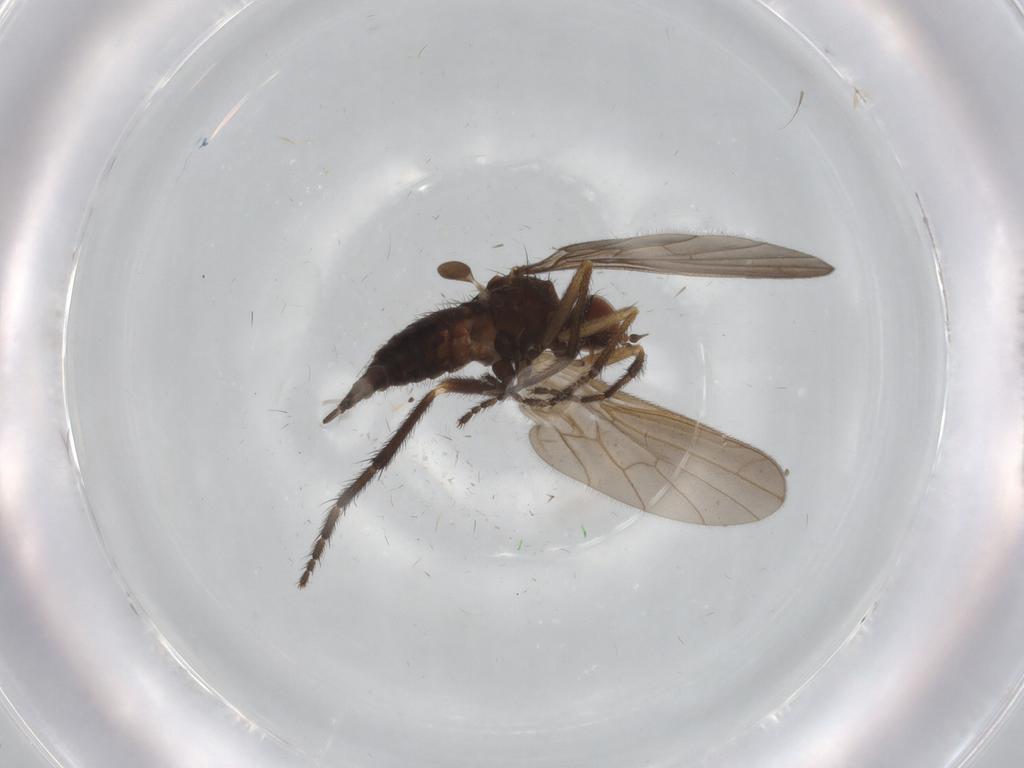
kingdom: Animalia
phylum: Arthropoda
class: Insecta
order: Diptera
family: Empididae
